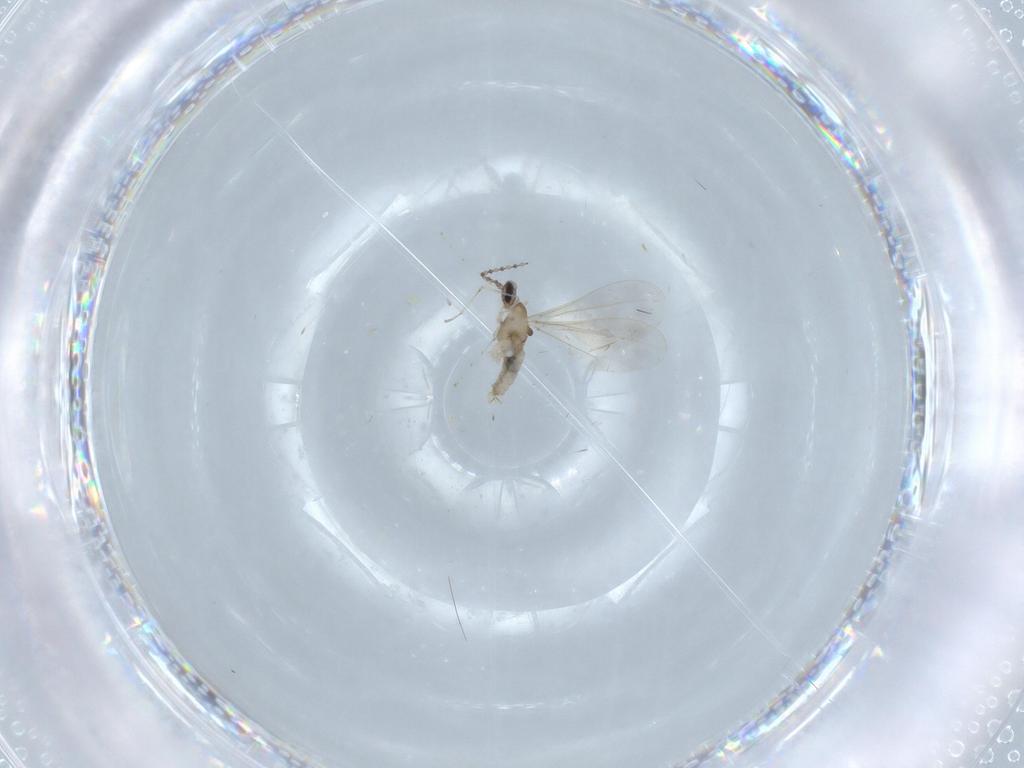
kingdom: Animalia
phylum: Arthropoda
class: Insecta
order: Diptera
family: Cecidomyiidae
